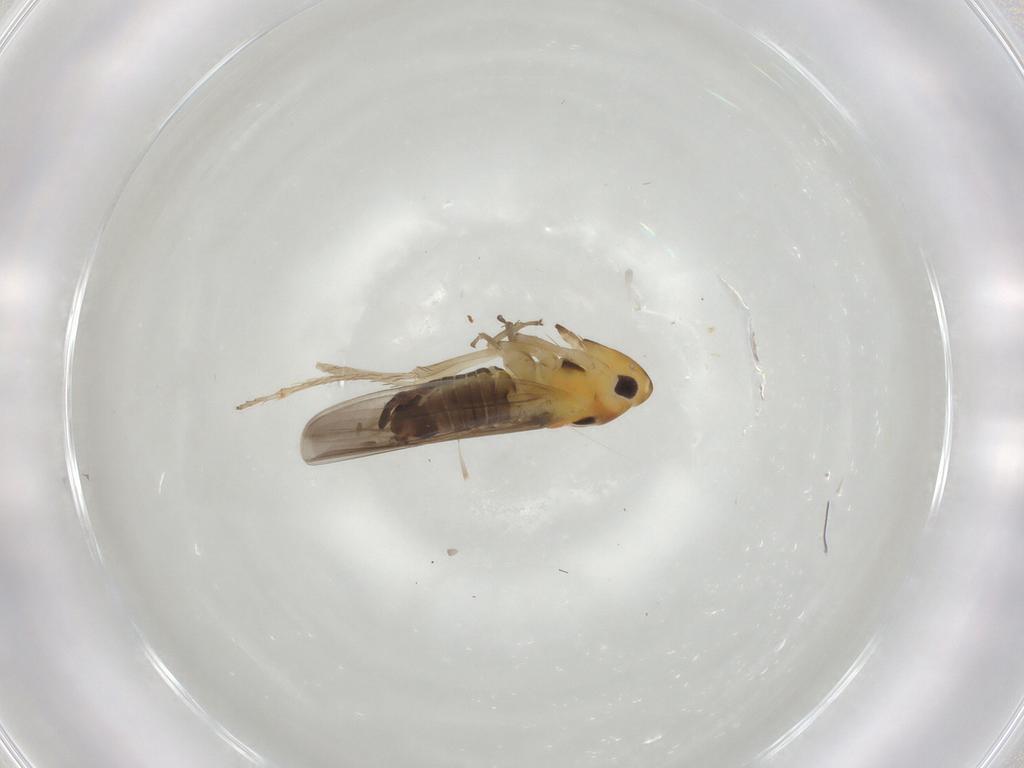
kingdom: Animalia
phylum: Arthropoda
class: Insecta
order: Hemiptera
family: Cicadellidae
